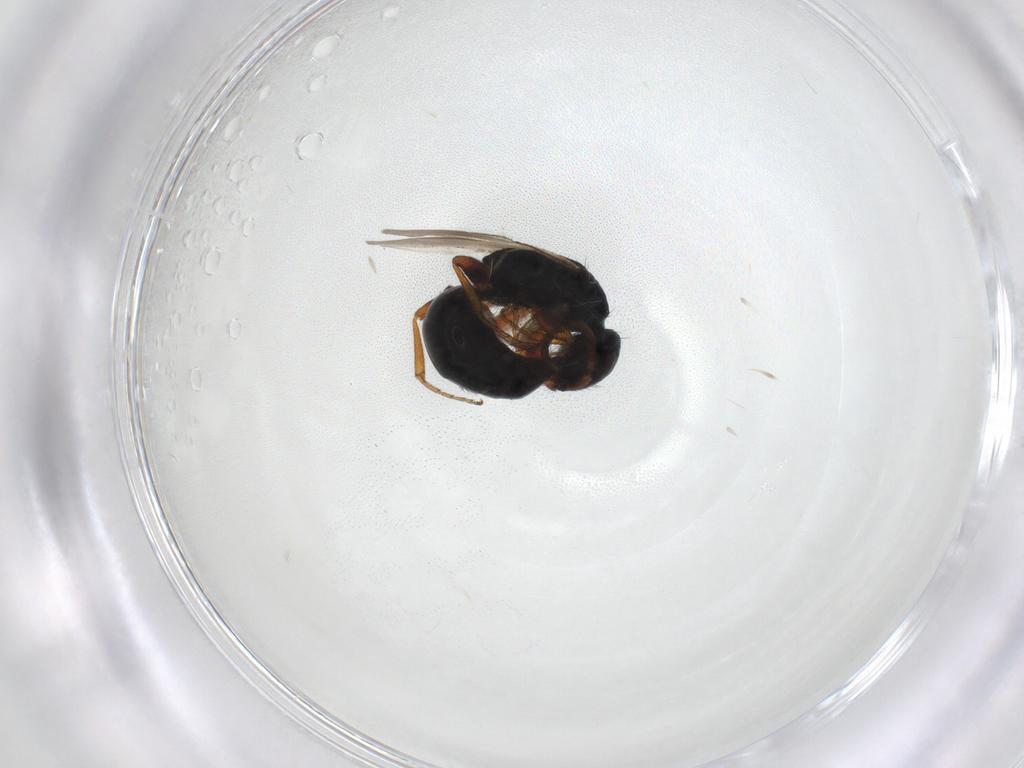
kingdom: Animalia
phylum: Arthropoda
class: Insecta
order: Hymenoptera
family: Bethylidae
